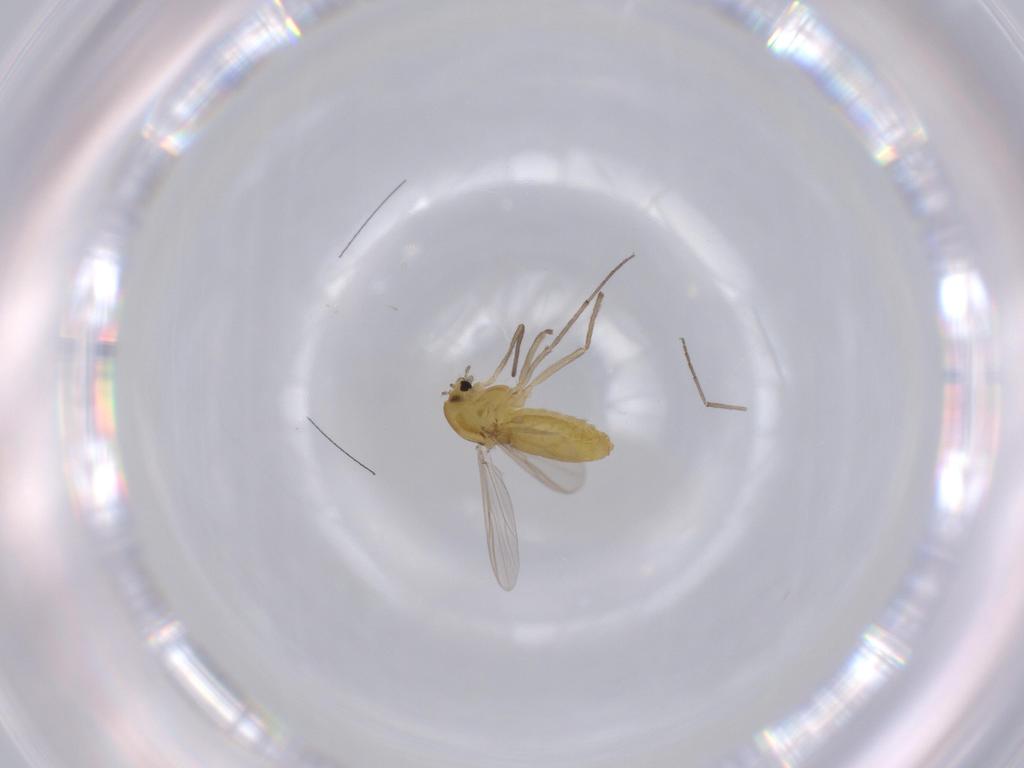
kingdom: Animalia
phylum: Arthropoda
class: Insecta
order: Diptera
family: Chironomidae
